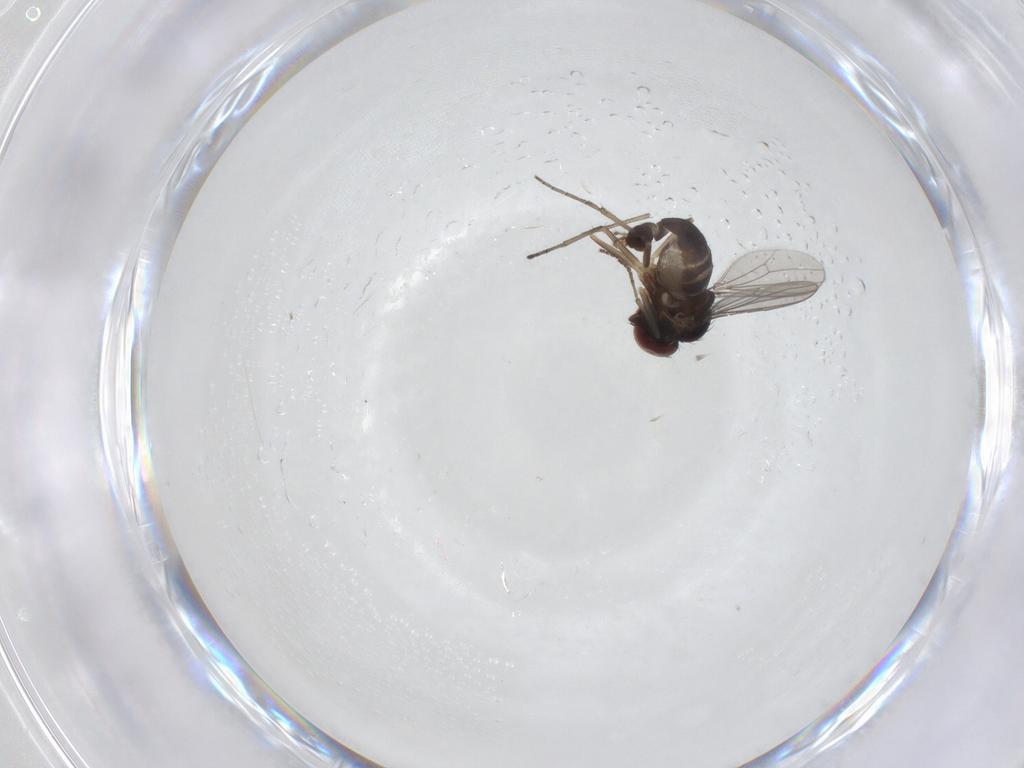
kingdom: Animalia
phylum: Arthropoda
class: Insecta
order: Diptera
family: Dolichopodidae
